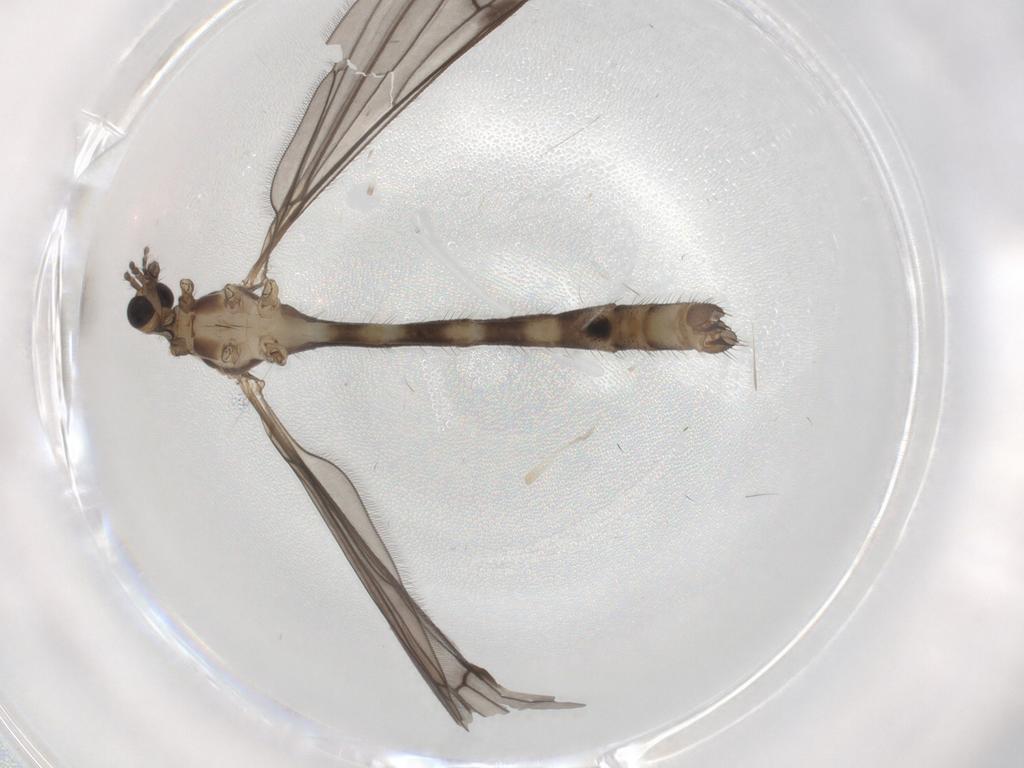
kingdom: Animalia
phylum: Arthropoda
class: Insecta
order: Diptera
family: Limoniidae
